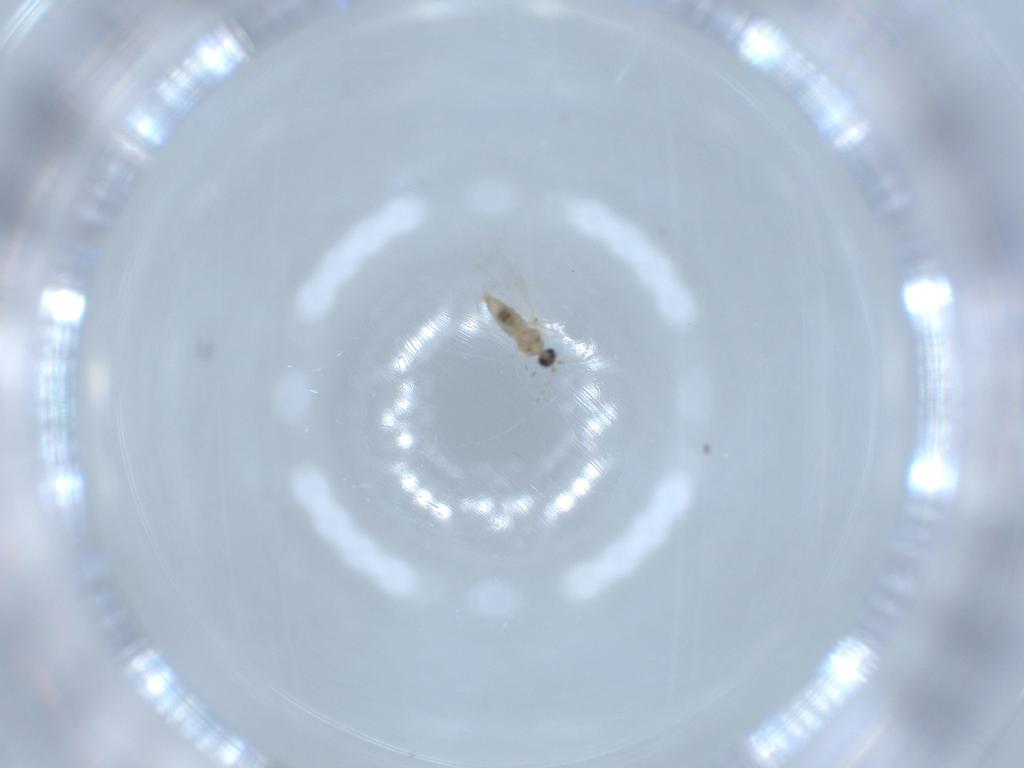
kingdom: Animalia
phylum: Arthropoda
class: Insecta
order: Diptera
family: Cecidomyiidae
